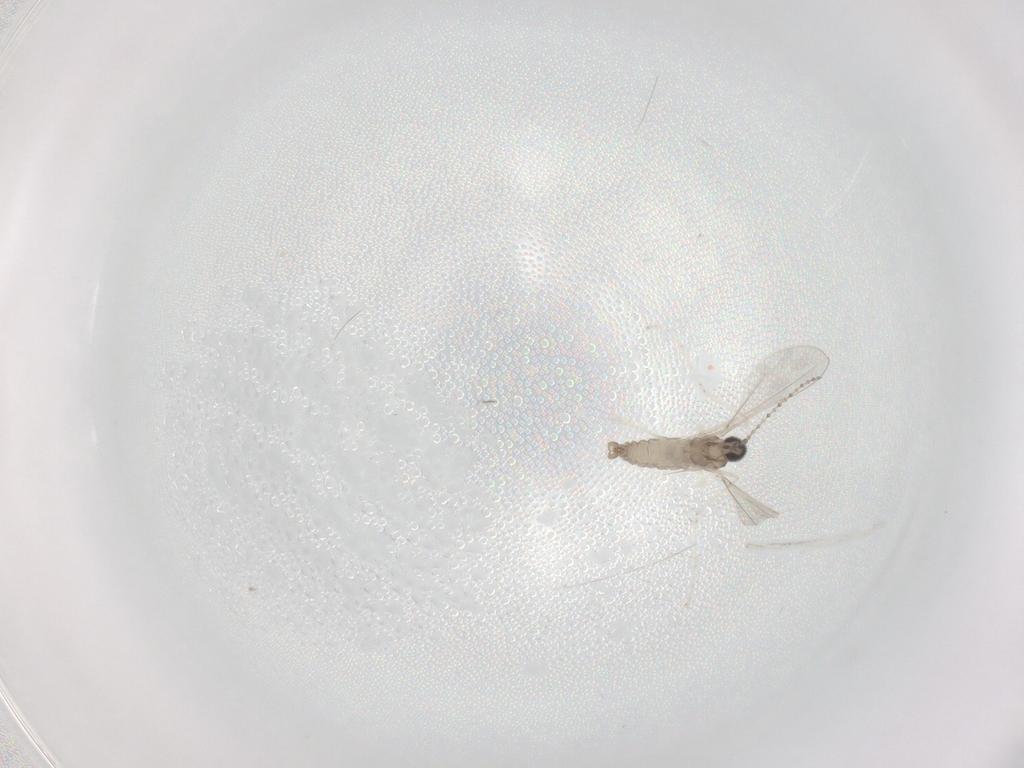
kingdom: Animalia
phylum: Arthropoda
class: Insecta
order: Diptera
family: Cecidomyiidae
